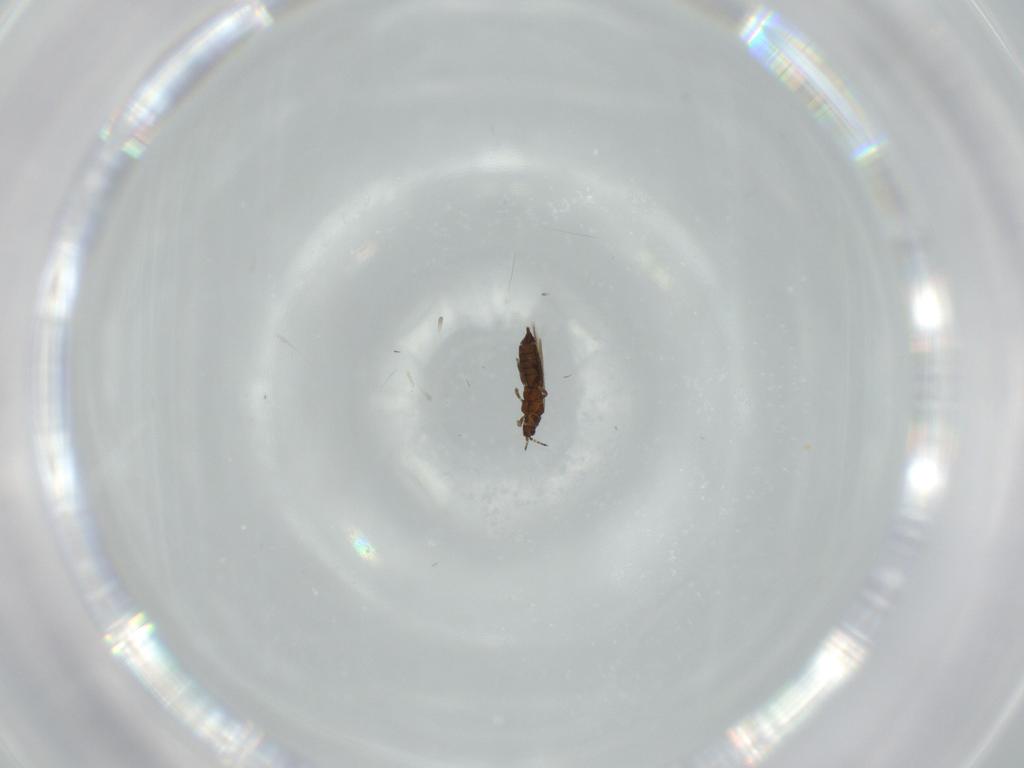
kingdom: Animalia
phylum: Arthropoda
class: Insecta
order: Thysanoptera
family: Thripidae
